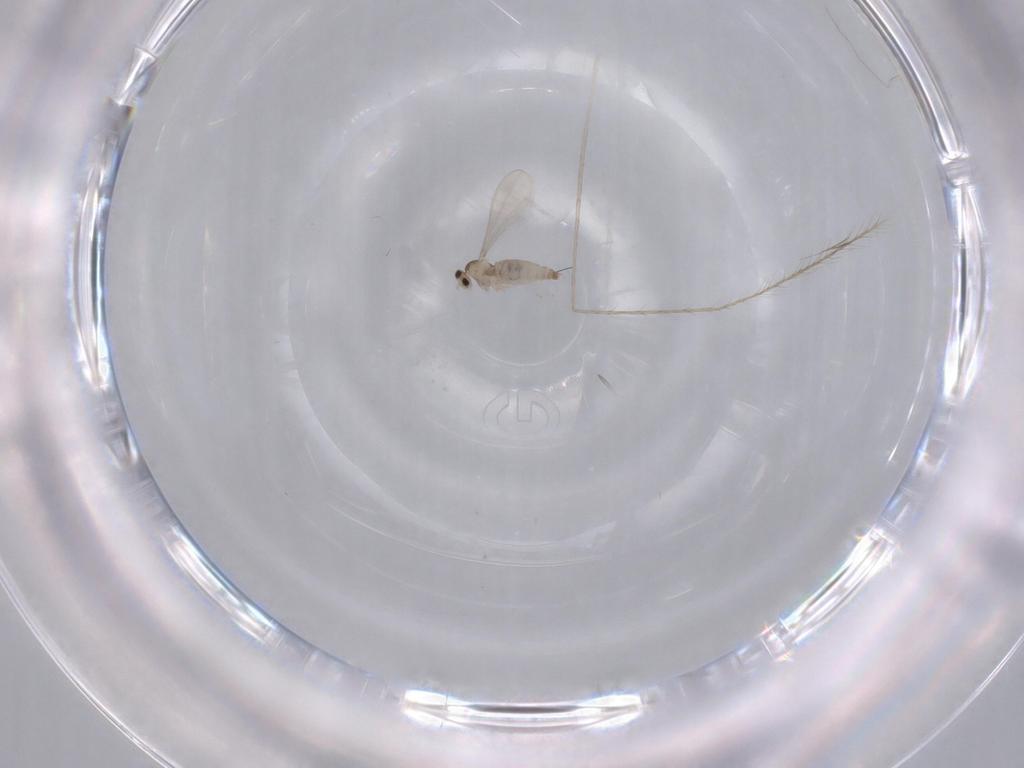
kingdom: Animalia
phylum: Arthropoda
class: Insecta
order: Diptera
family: Cecidomyiidae
